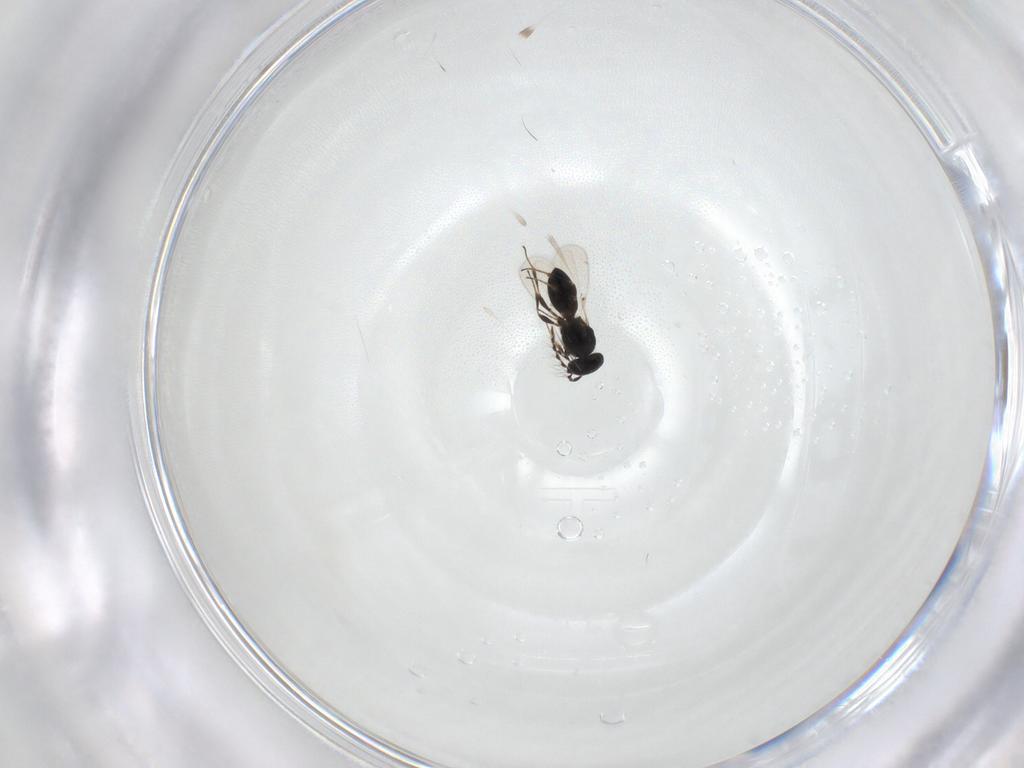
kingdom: Animalia
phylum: Arthropoda
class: Insecta
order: Hymenoptera
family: Platygastridae
